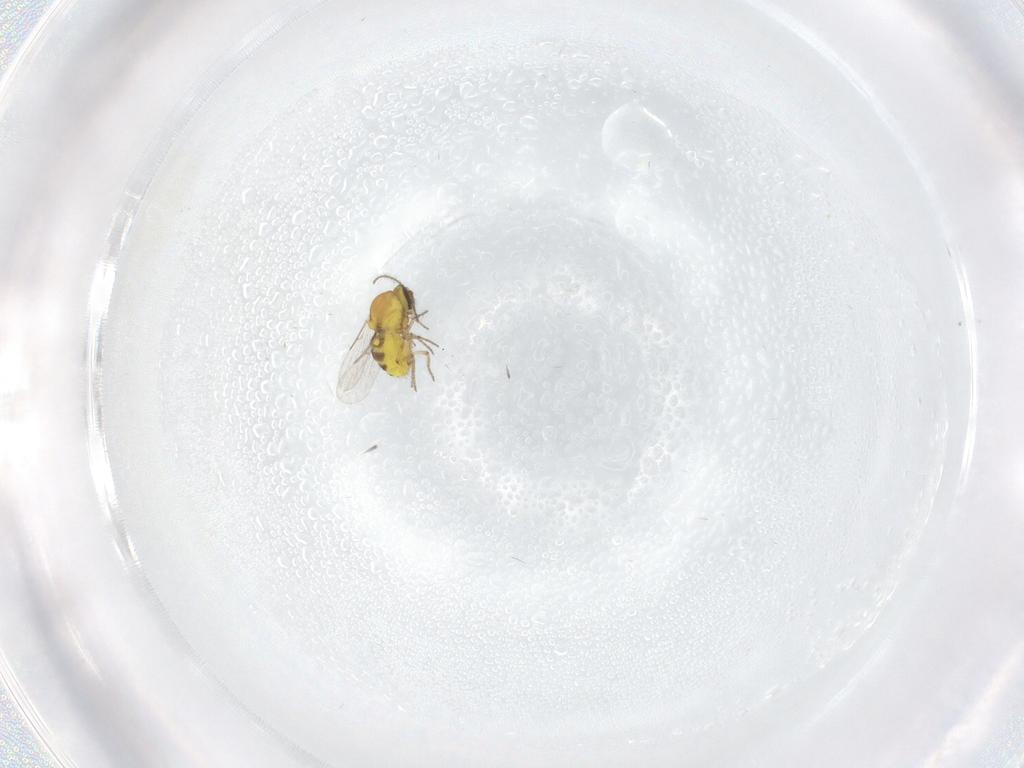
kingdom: Animalia
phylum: Arthropoda
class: Insecta
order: Diptera
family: Ceratopogonidae
